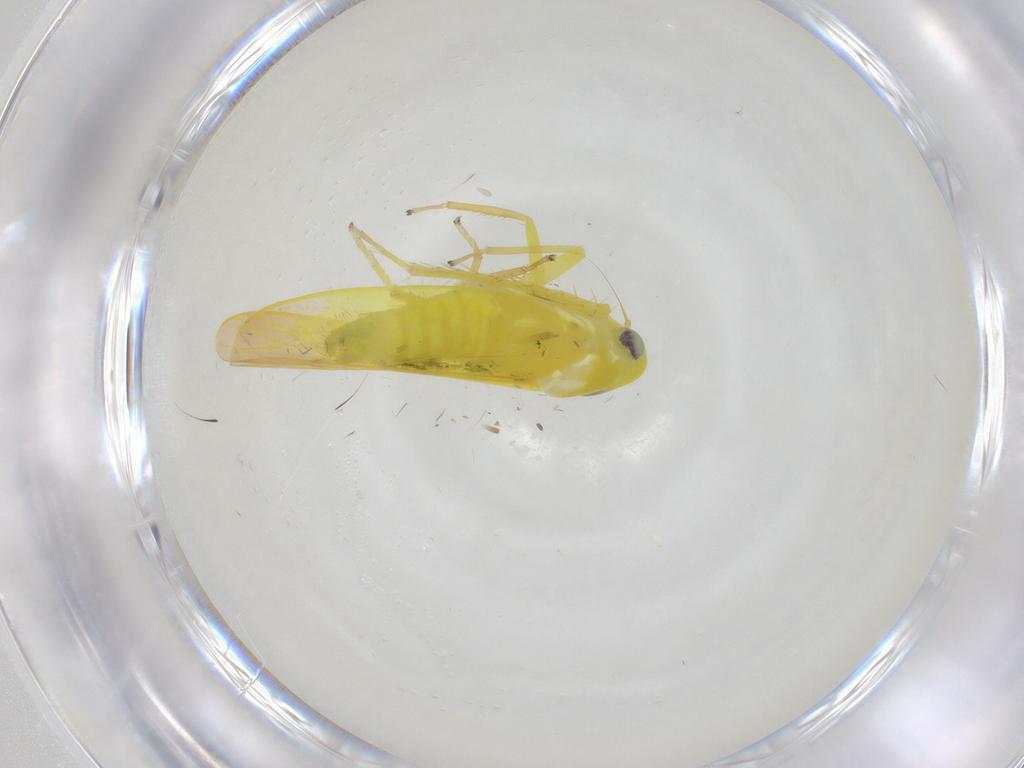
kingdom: Animalia
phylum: Arthropoda
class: Insecta
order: Hemiptera
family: Cicadellidae
